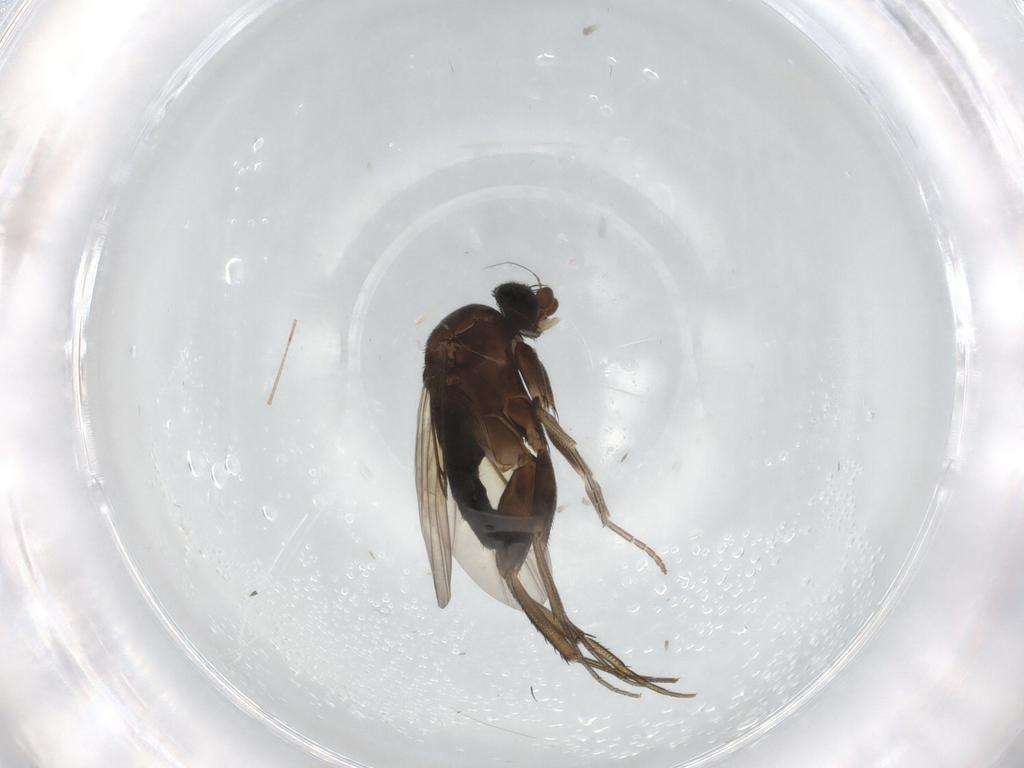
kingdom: Animalia
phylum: Arthropoda
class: Insecta
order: Diptera
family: Phoridae
